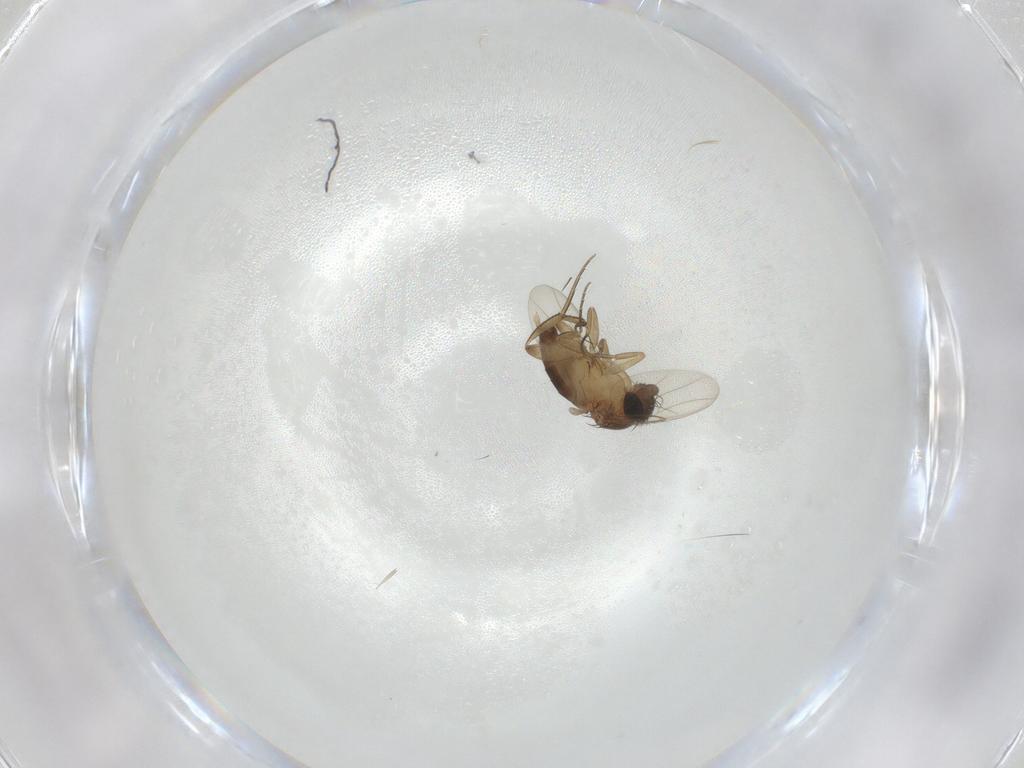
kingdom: Animalia
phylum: Arthropoda
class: Insecta
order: Diptera
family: Phoridae
